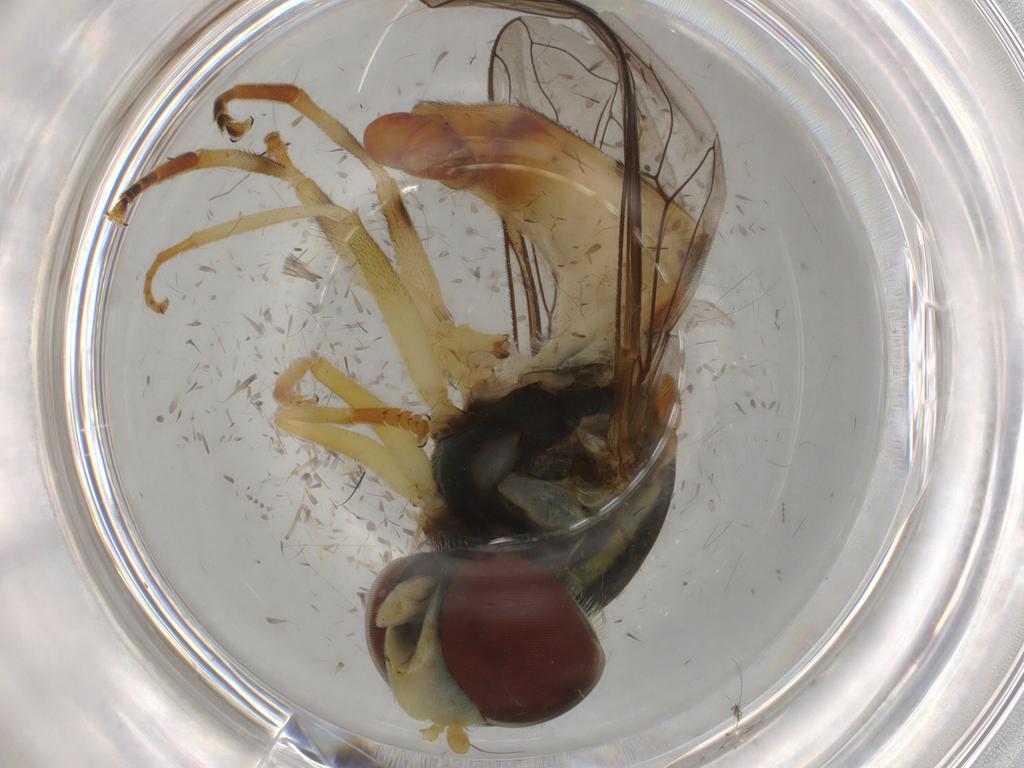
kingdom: Animalia
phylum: Arthropoda
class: Insecta
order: Diptera
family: Syrphidae
